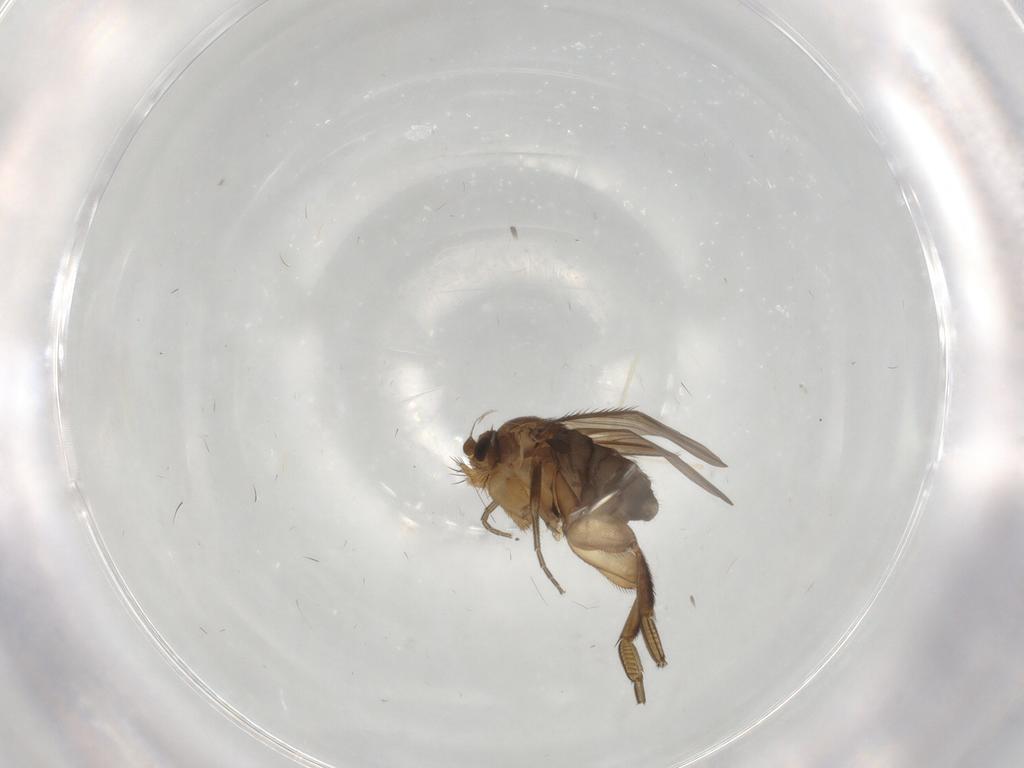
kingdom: Animalia
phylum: Arthropoda
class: Insecta
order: Diptera
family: Phoridae
